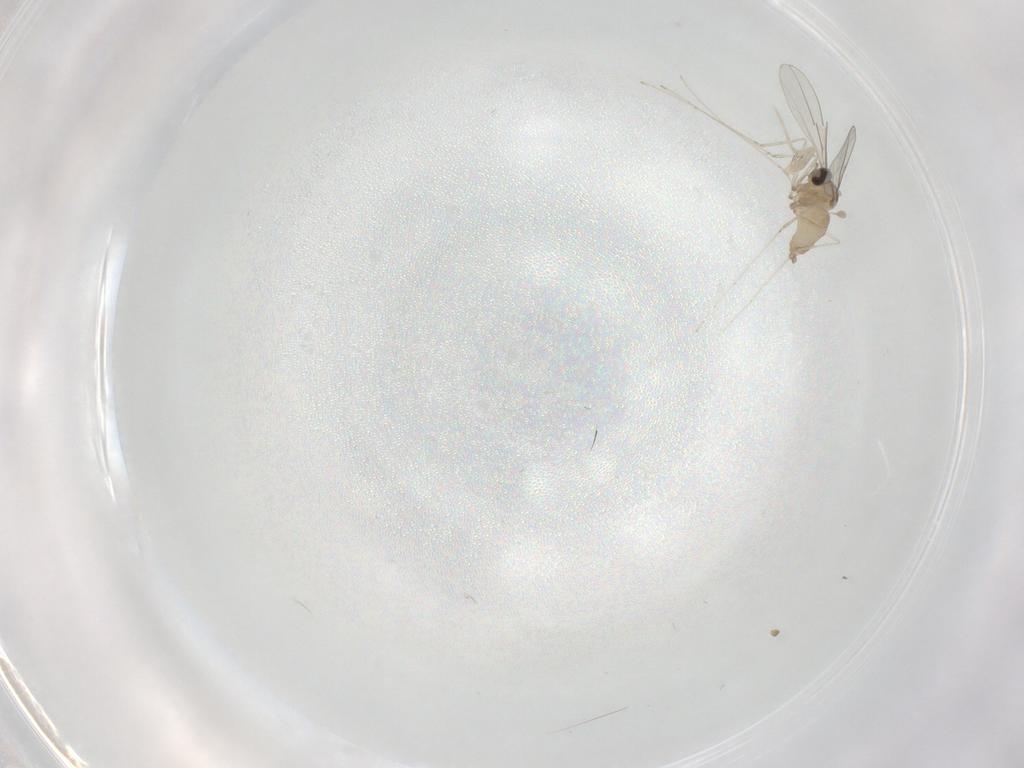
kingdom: Animalia
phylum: Arthropoda
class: Insecta
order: Diptera
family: Cecidomyiidae
